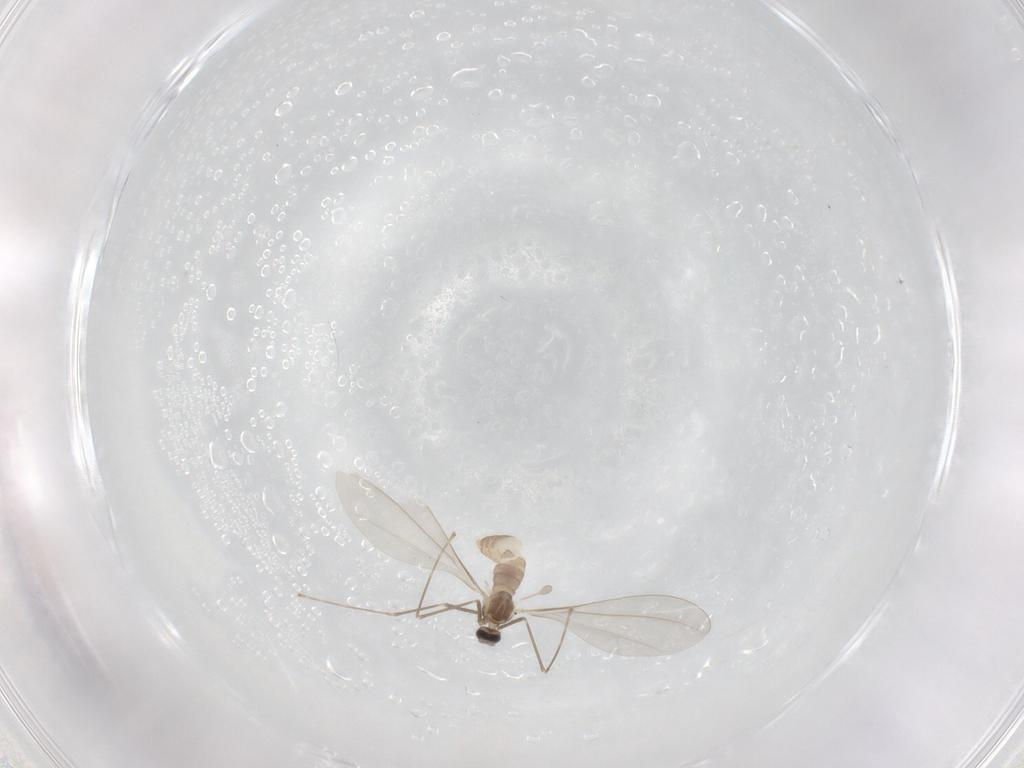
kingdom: Animalia
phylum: Arthropoda
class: Insecta
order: Diptera
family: Cecidomyiidae
